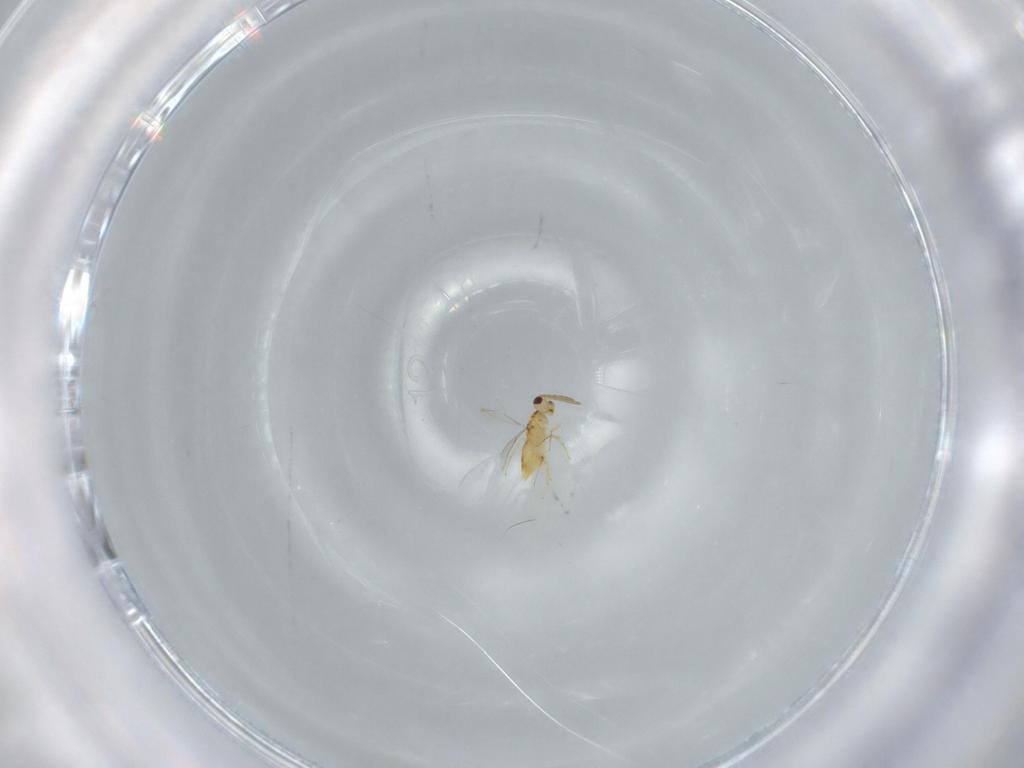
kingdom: Animalia
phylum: Arthropoda
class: Insecta
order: Hymenoptera
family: Aphelinidae
